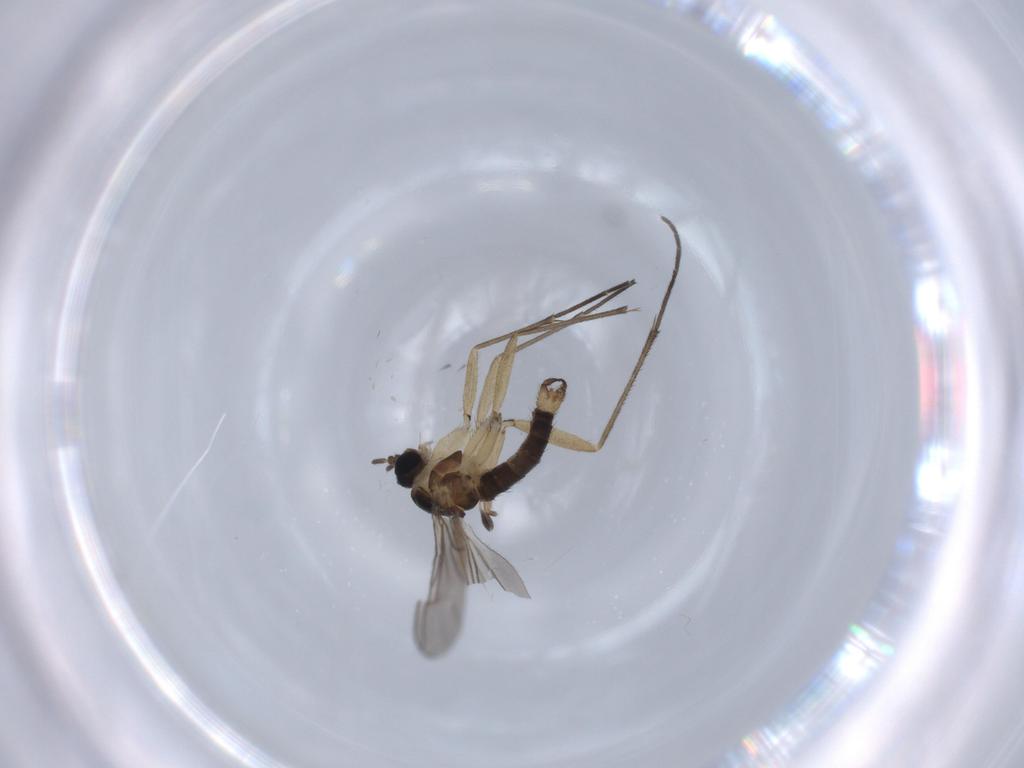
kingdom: Animalia
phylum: Arthropoda
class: Insecta
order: Diptera
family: Sciaridae
